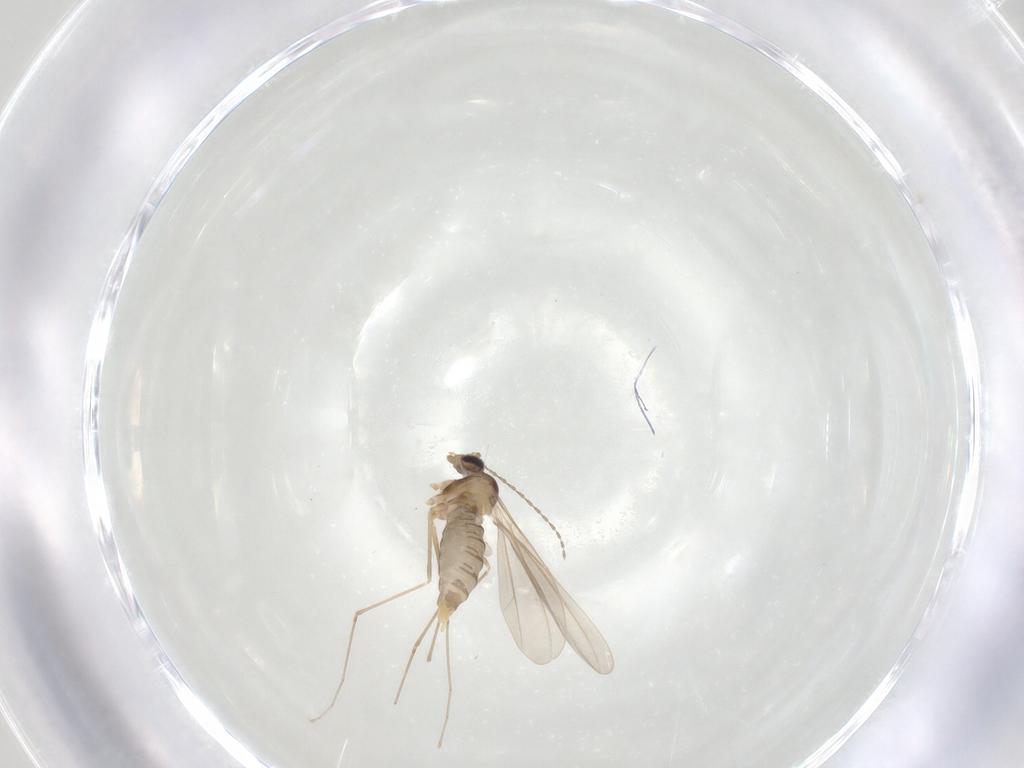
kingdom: Animalia
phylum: Arthropoda
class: Insecta
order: Diptera
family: Cecidomyiidae
